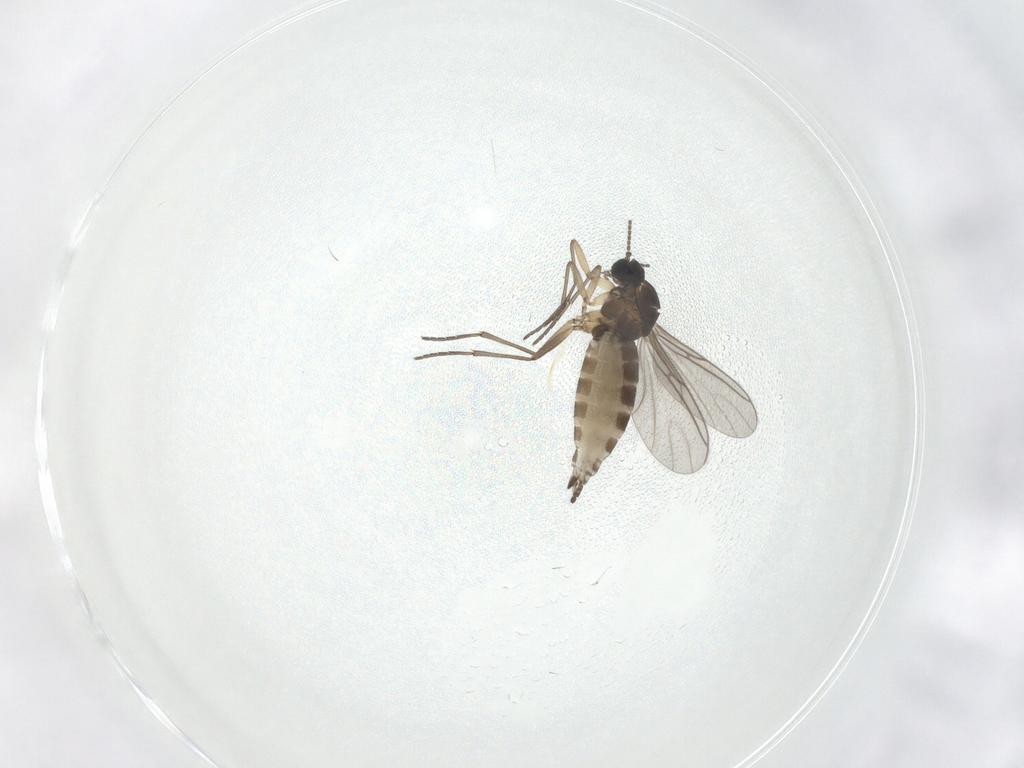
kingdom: Animalia
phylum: Arthropoda
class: Insecta
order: Diptera
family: Sciaridae
